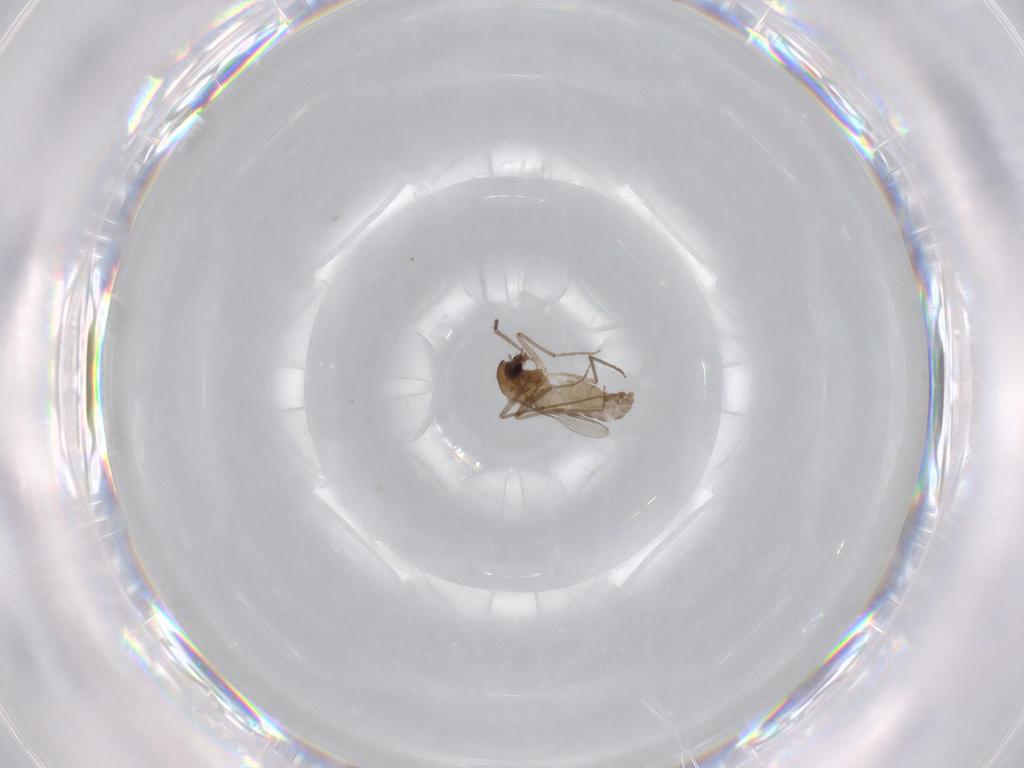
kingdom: Animalia
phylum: Arthropoda
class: Insecta
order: Diptera
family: Chironomidae
